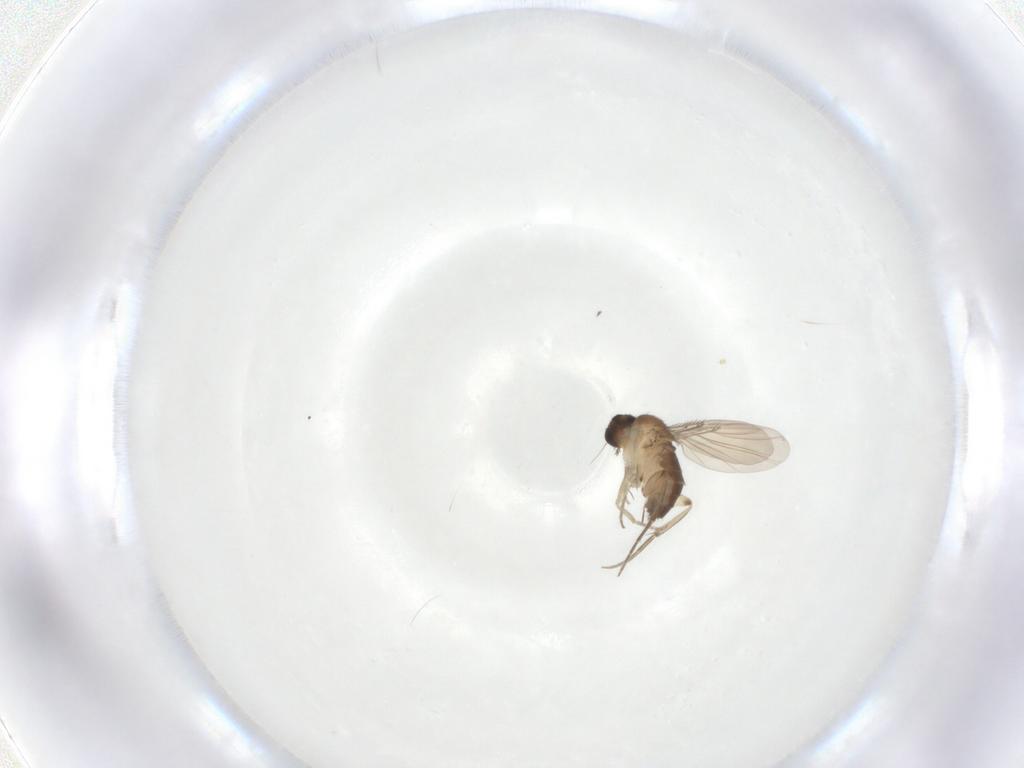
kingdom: Animalia
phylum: Arthropoda
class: Insecta
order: Diptera
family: Phoridae
